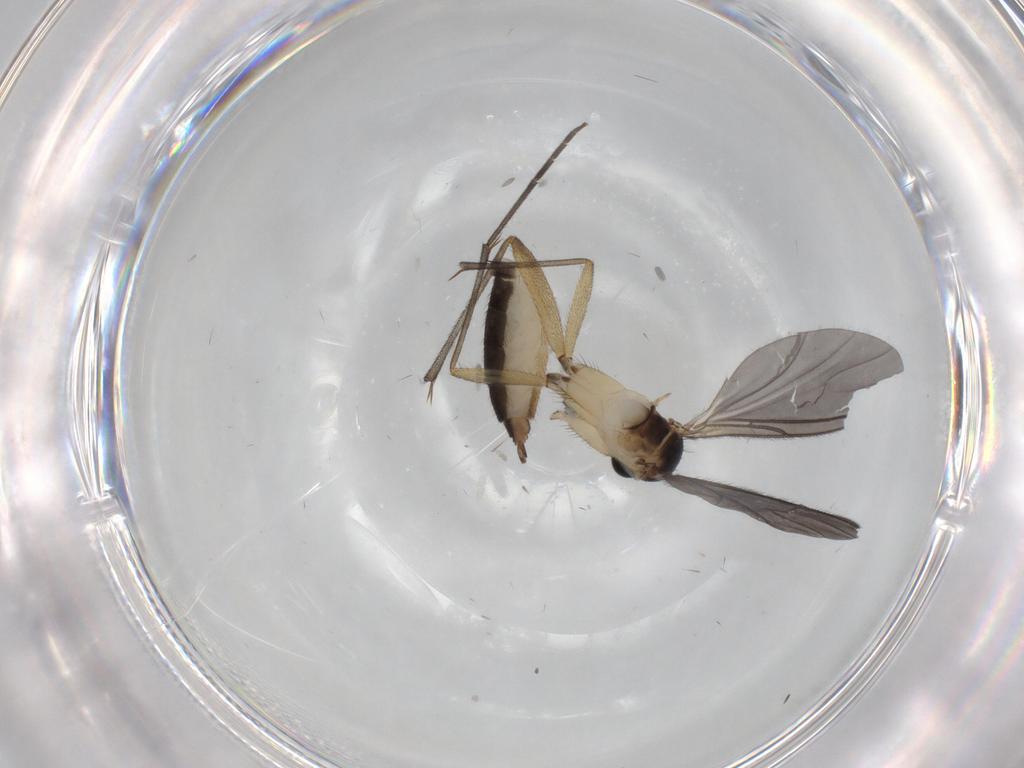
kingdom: Animalia
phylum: Arthropoda
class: Insecta
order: Diptera
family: Sciaridae
